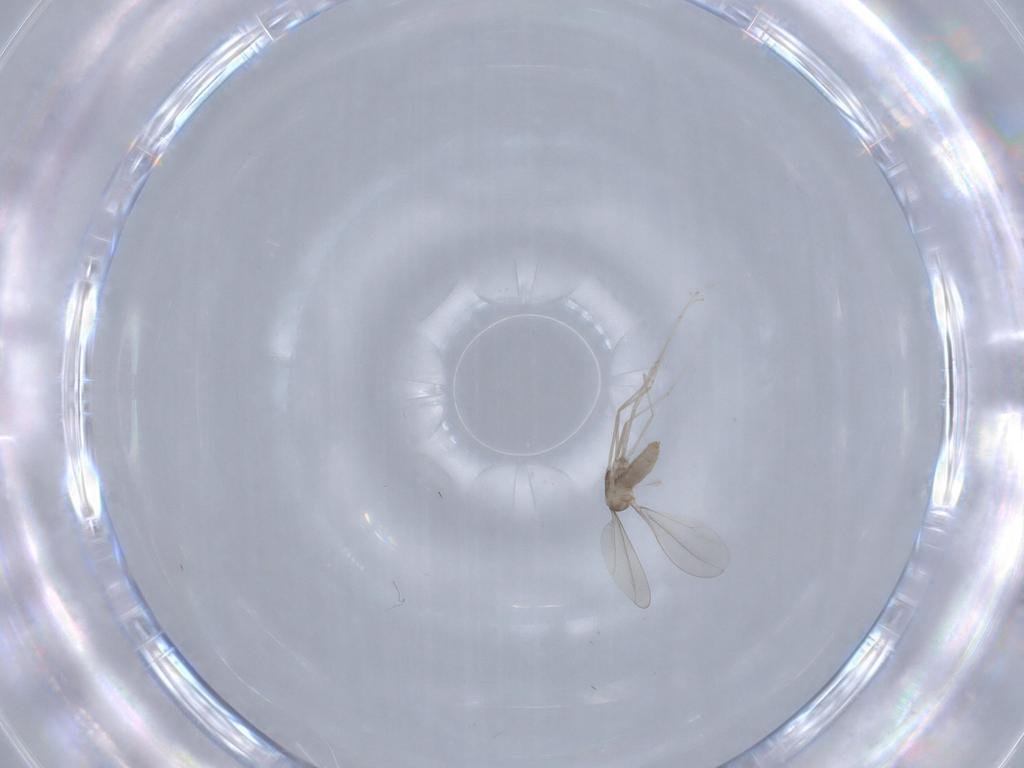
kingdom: Animalia
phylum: Arthropoda
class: Insecta
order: Diptera
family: Cecidomyiidae
